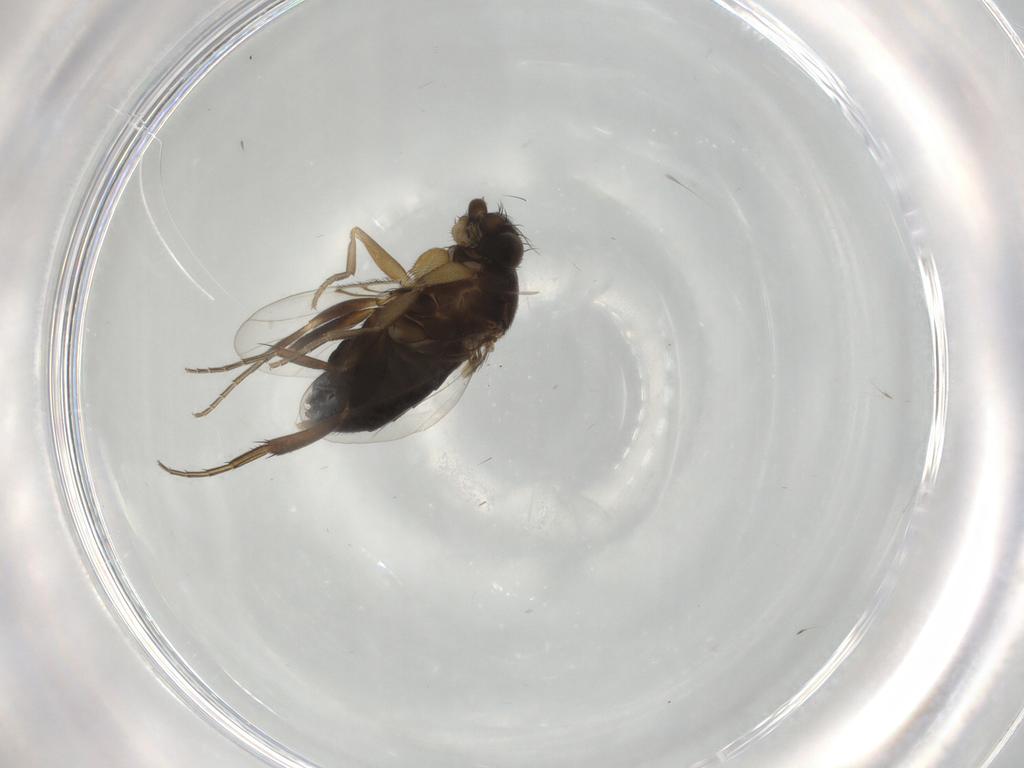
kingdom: Animalia
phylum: Arthropoda
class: Insecta
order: Diptera
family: Phoridae
